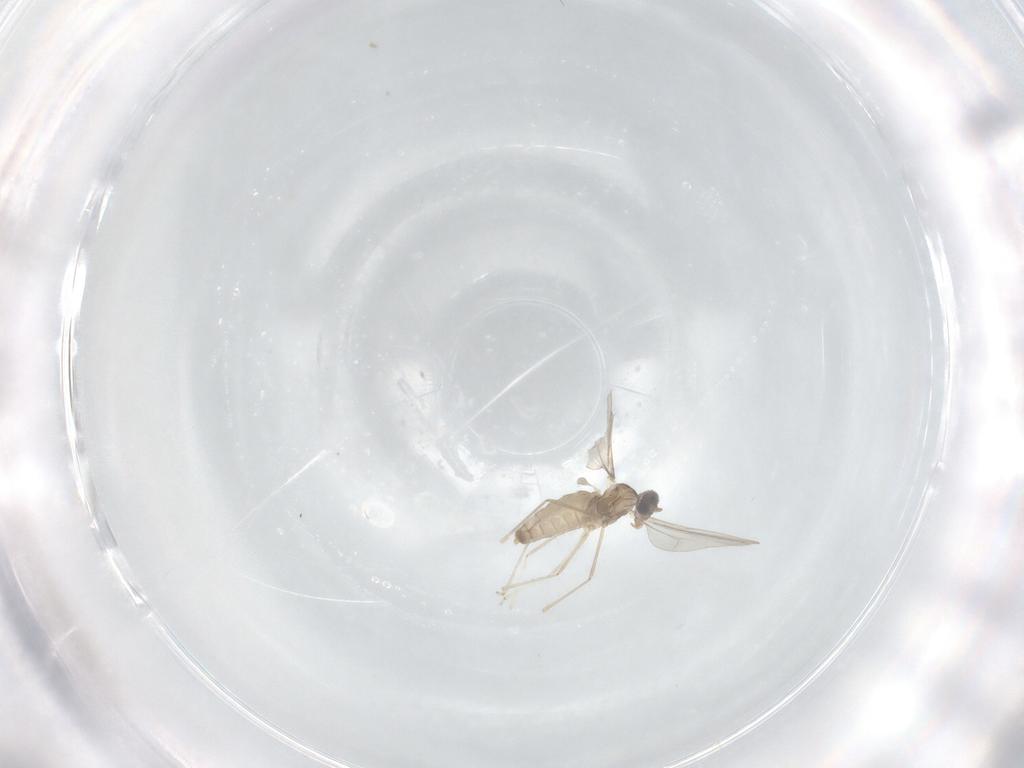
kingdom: Animalia
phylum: Arthropoda
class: Insecta
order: Diptera
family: Cecidomyiidae
